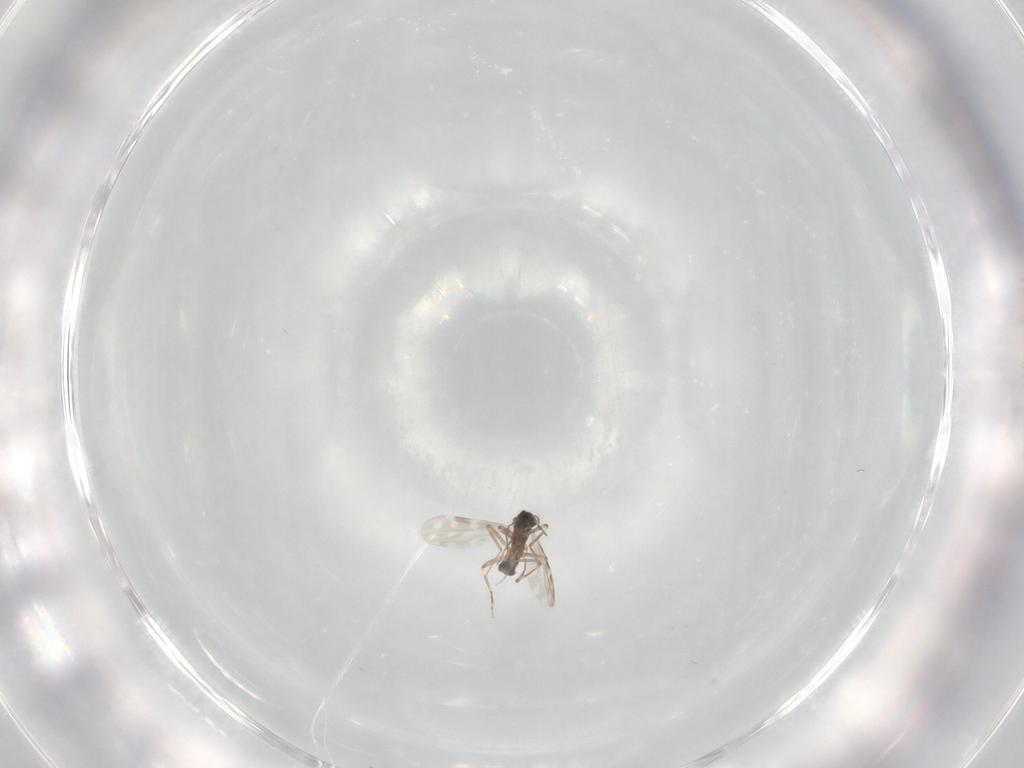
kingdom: Animalia
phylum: Arthropoda
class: Insecta
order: Diptera
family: Ceratopogonidae
